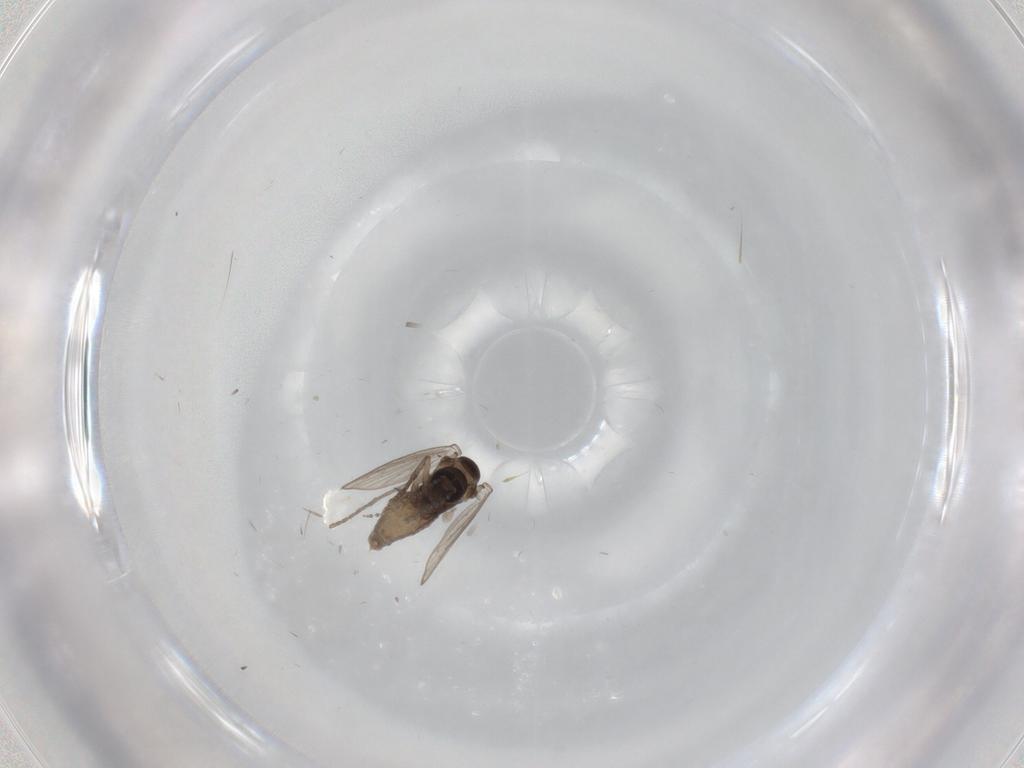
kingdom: Animalia
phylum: Arthropoda
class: Insecta
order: Diptera
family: Psychodidae
